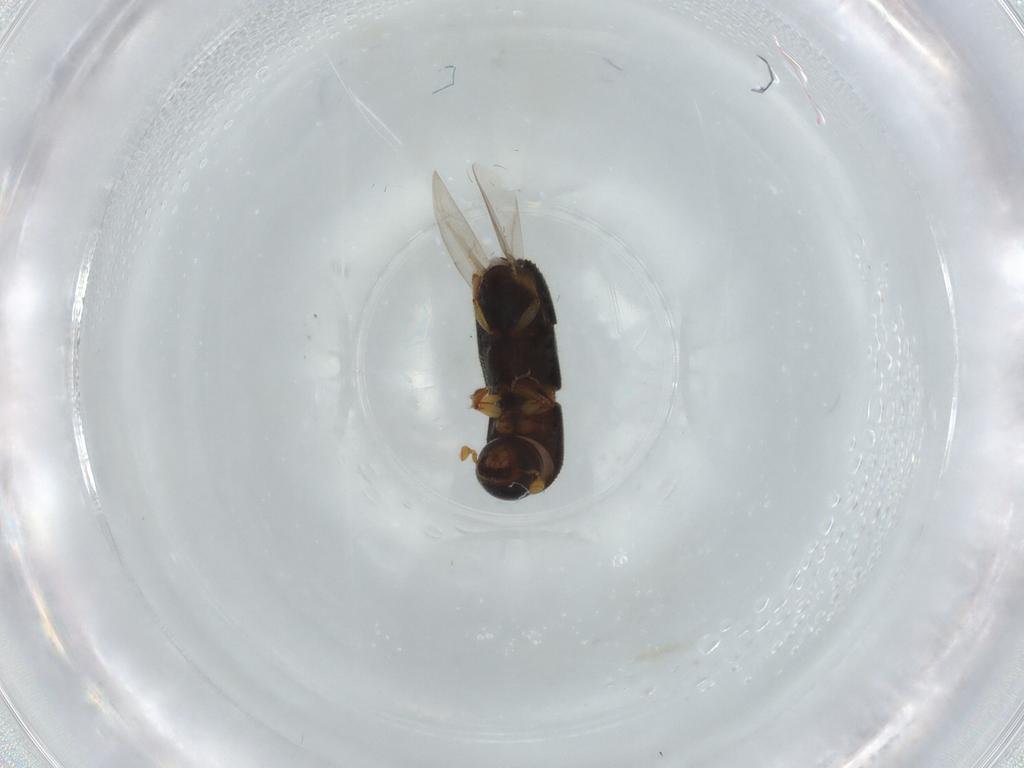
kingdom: Animalia
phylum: Arthropoda
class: Insecta
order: Coleoptera
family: Curculionidae
